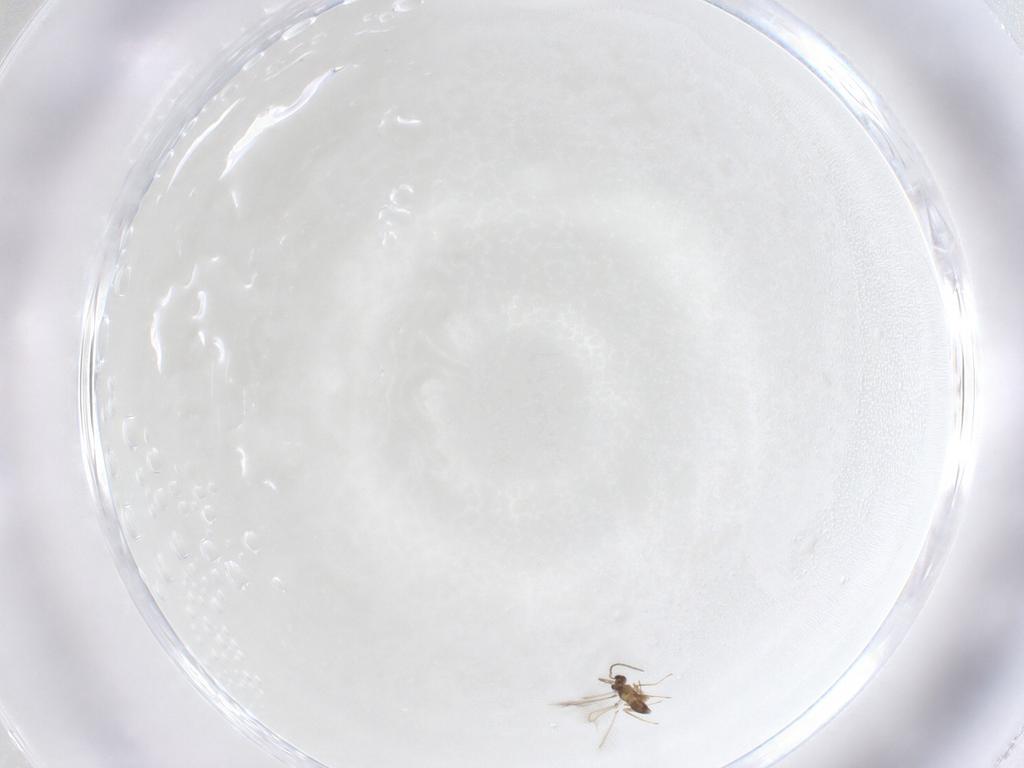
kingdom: Animalia
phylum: Arthropoda
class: Insecta
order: Hymenoptera
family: Mymaridae
